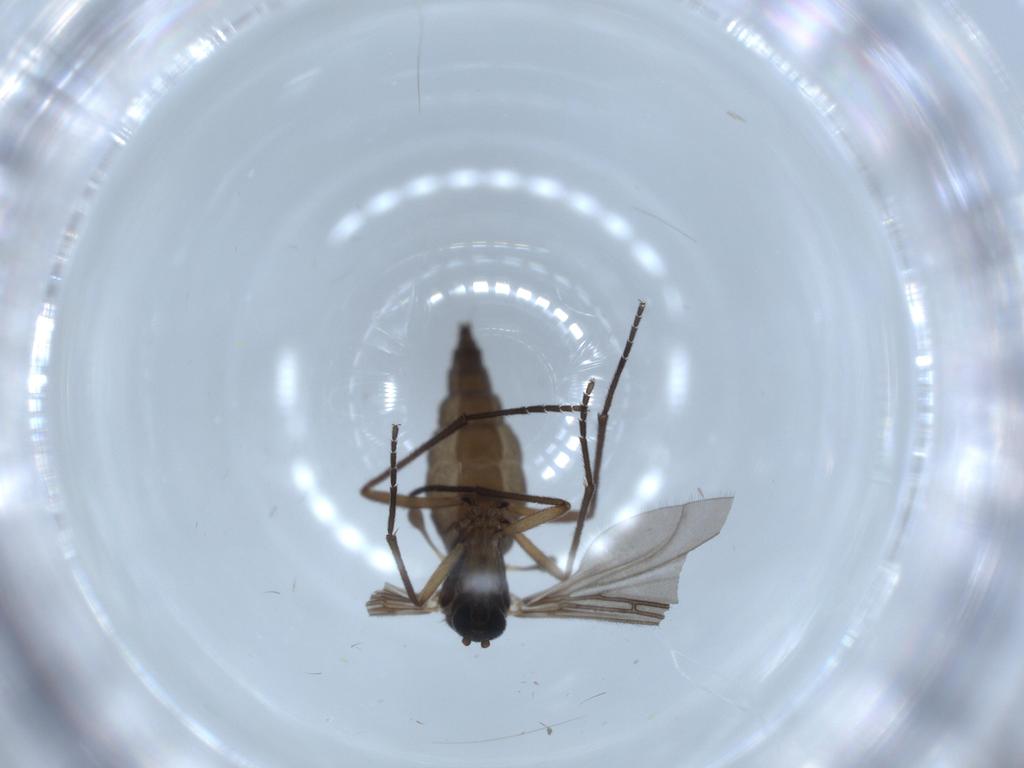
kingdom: Animalia
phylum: Arthropoda
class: Insecta
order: Diptera
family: Sciaridae
